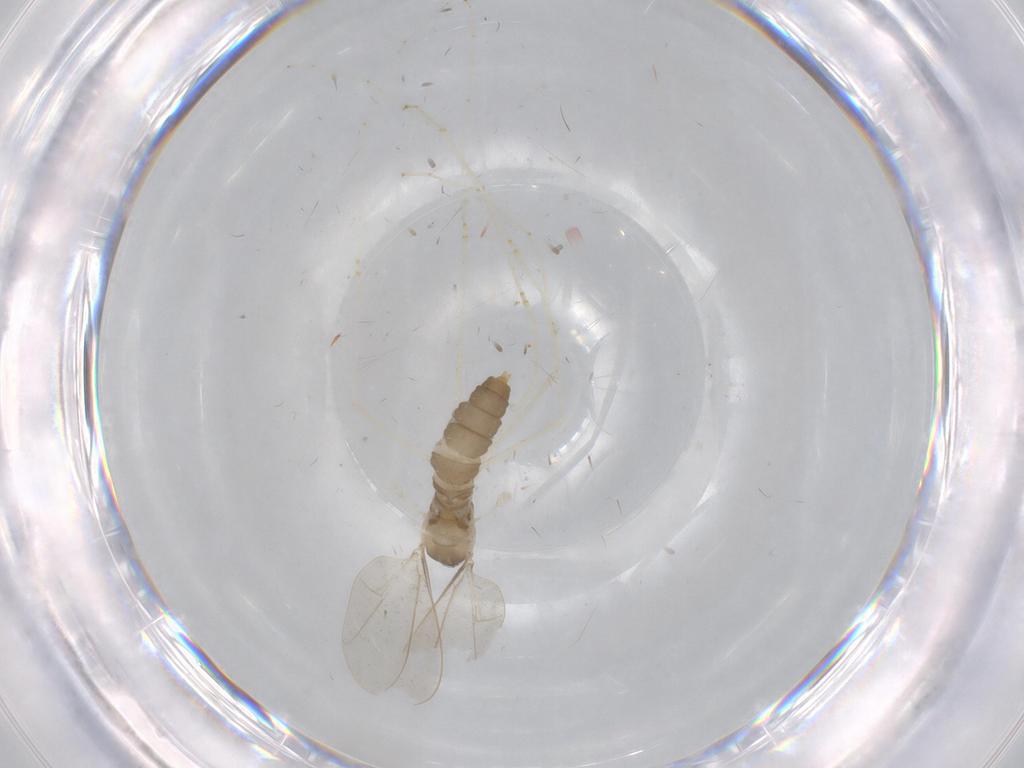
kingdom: Animalia
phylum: Arthropoda
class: Insecta
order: Diptera
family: Cecidomyiidae
